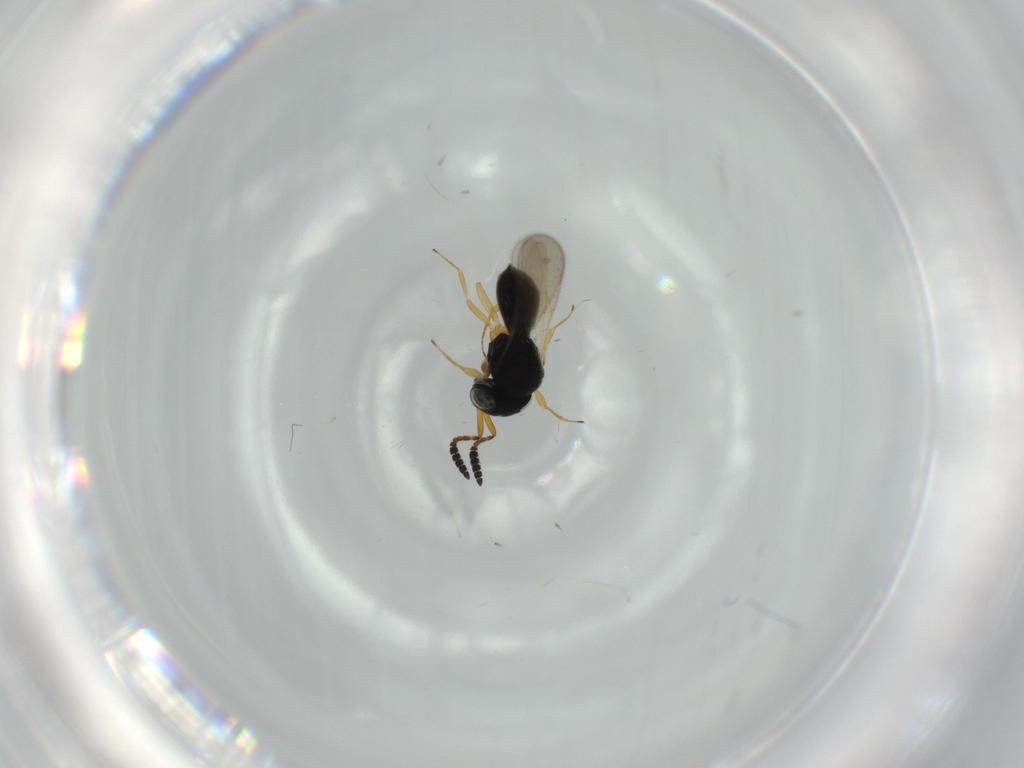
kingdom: Animalia
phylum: Arthropoda
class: Insecta
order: Hymenoptera
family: Scelionidae
